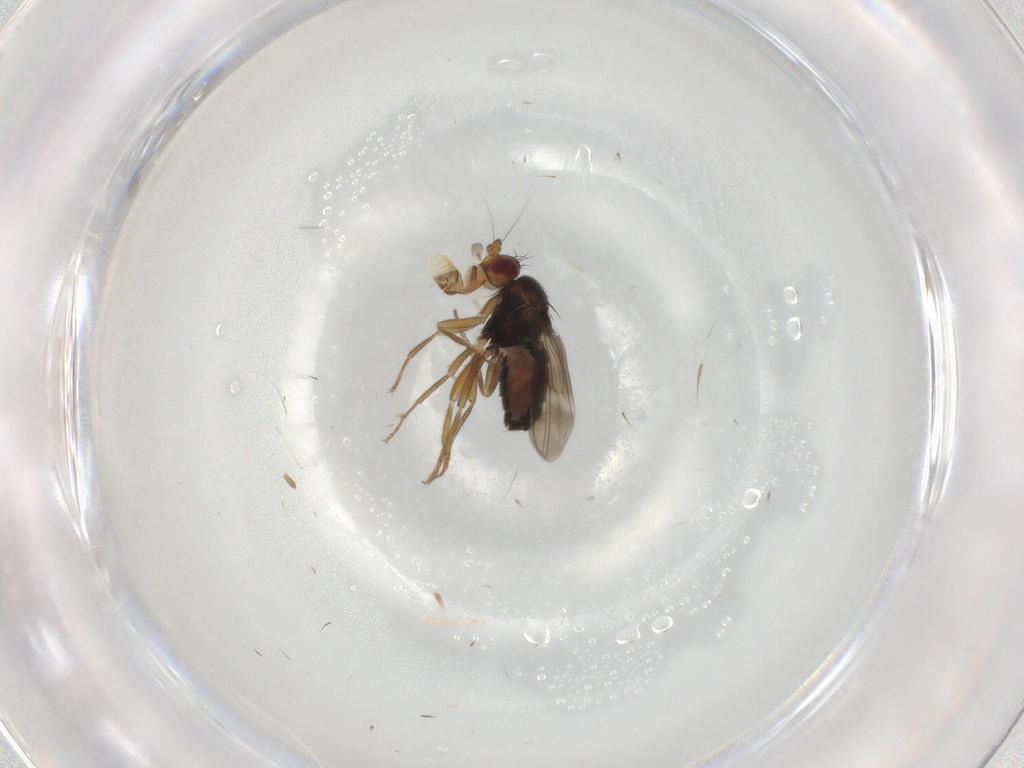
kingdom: Animalia
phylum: Arthropoda
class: Insecta
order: Diptera
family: Sphaeroceridae
